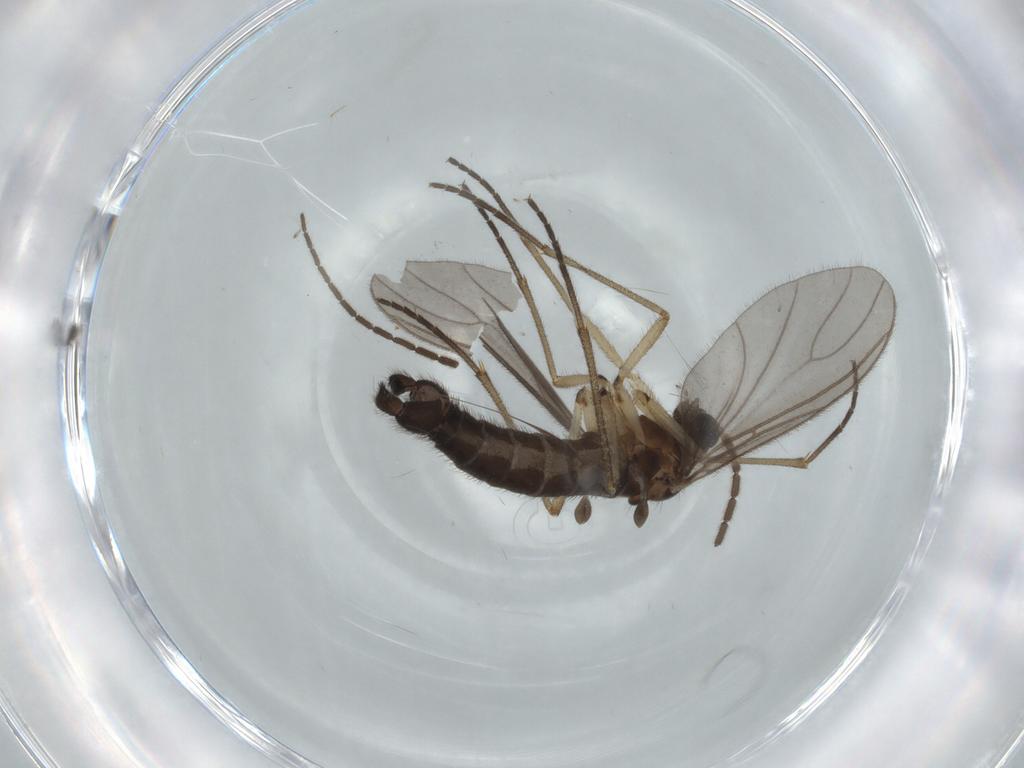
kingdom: Animalia
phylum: Arthropoda
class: Insecta
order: Diptera
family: Sciaridae
